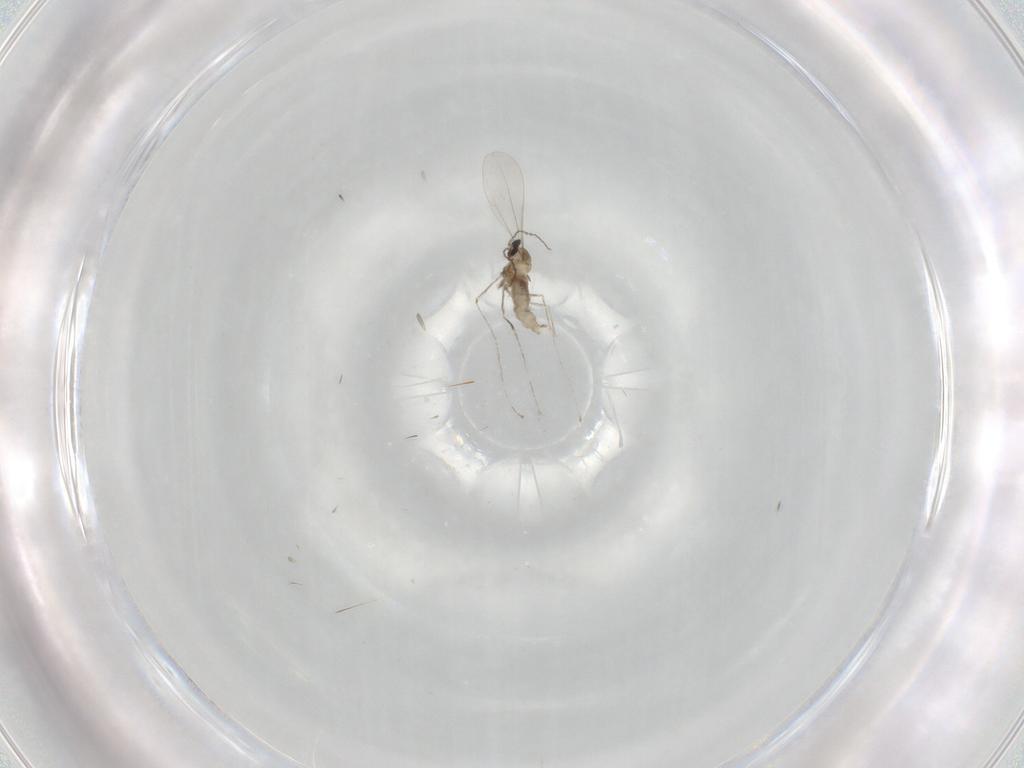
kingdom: Animalia
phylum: Arthropoda
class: Insecta
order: Diptera
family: Cecidomyiidae
